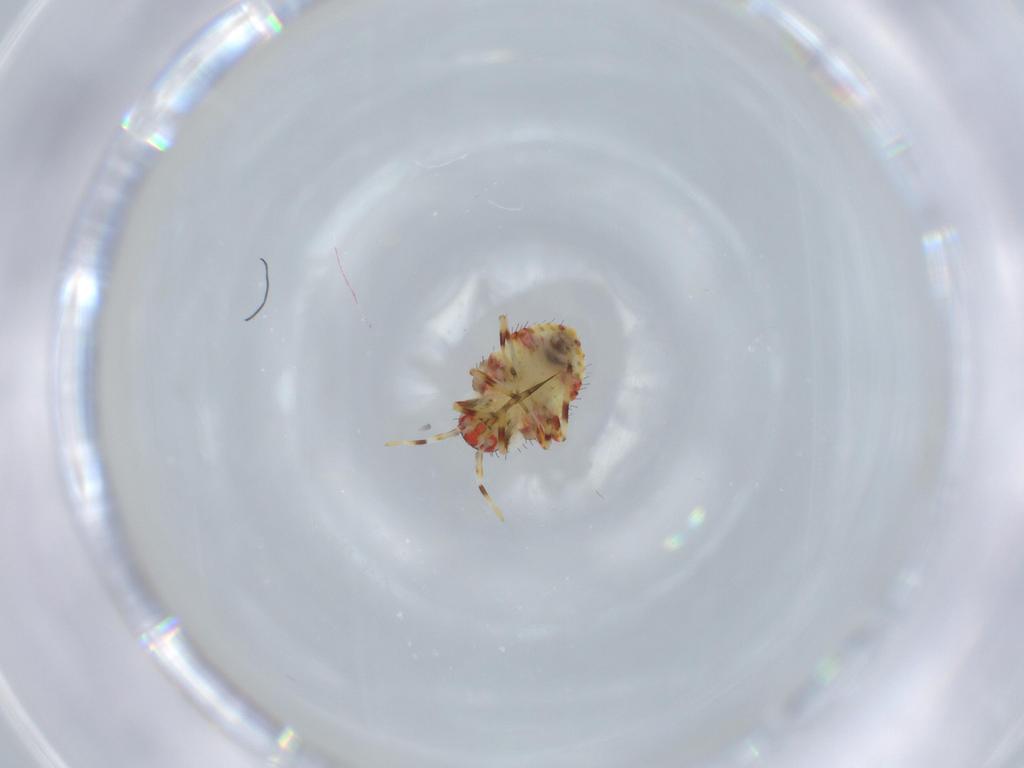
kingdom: Animalia
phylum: Arthropoda
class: Insecta
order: Hemiptera
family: Miridae
